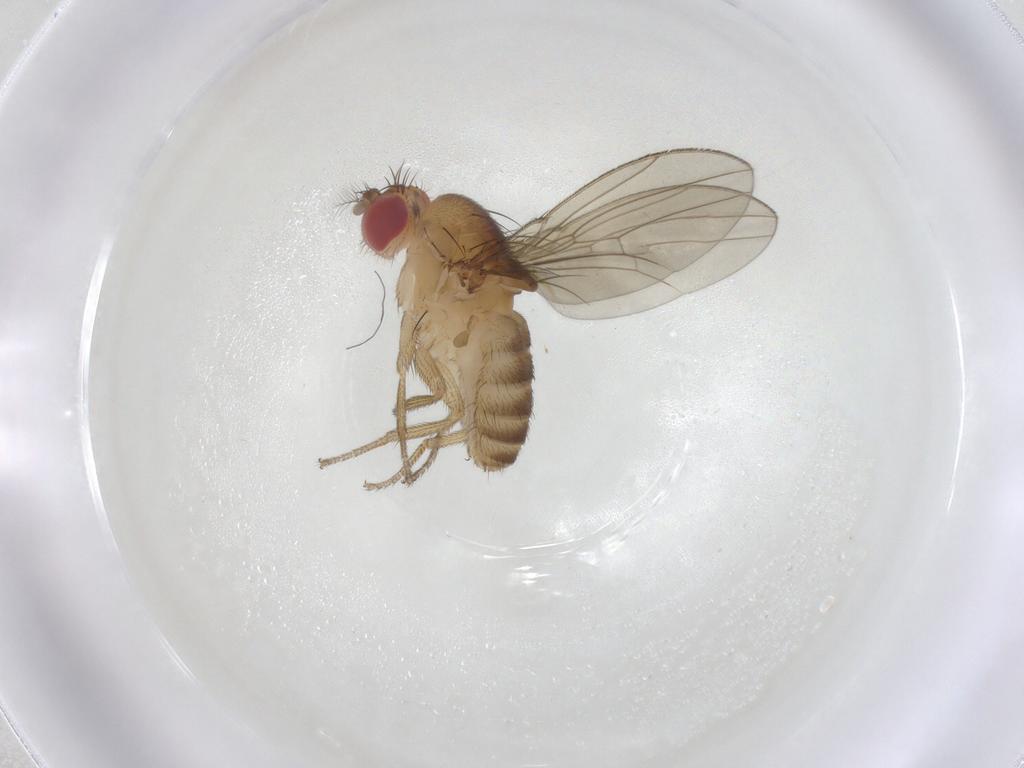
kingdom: Animalia
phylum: Arthropoda
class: Insecta
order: Diptera
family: Drosophilidae
